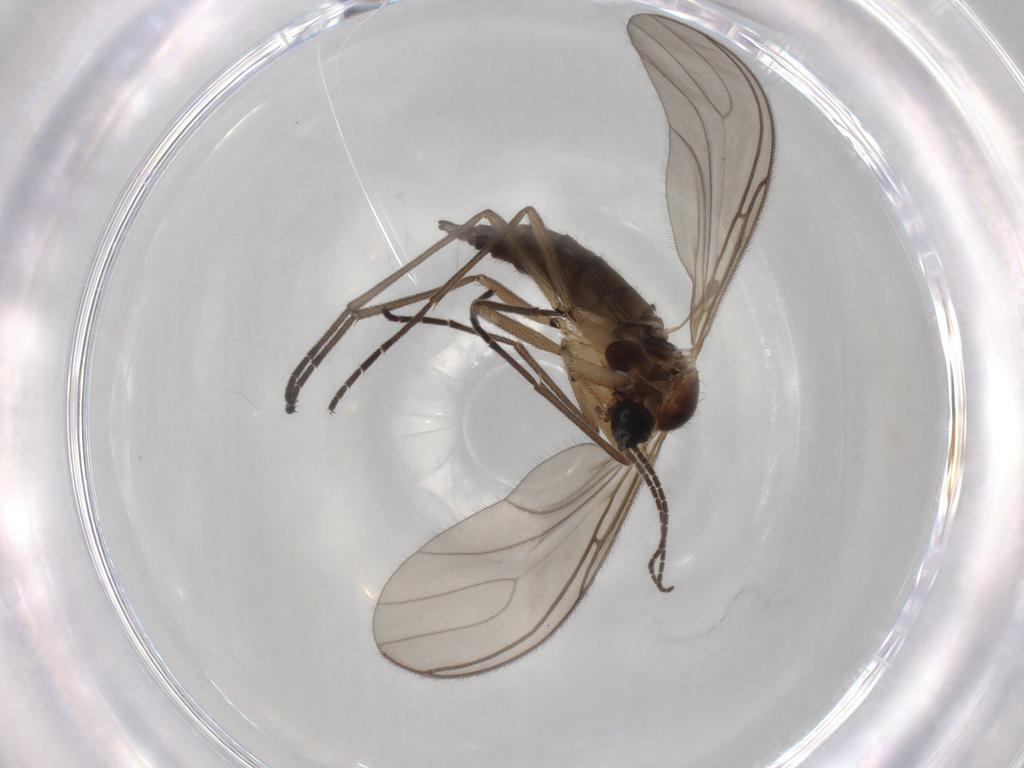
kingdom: Animalia
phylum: Arthropoda
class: Insecta
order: Diptera
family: Sciaridae
